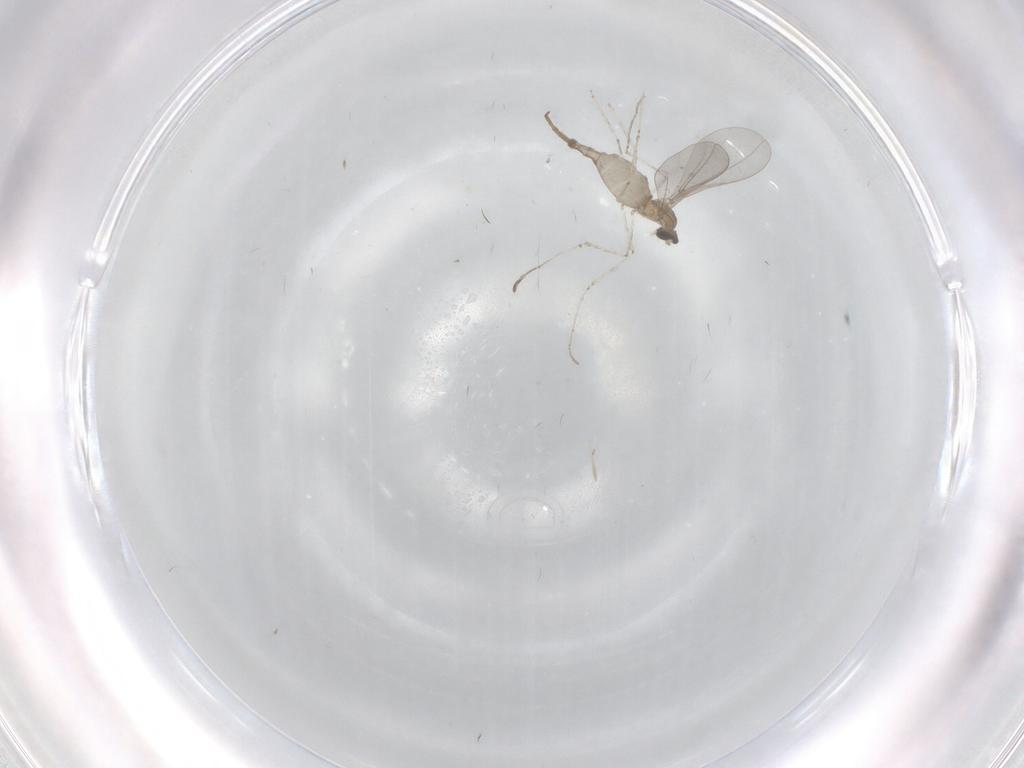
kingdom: Animalia
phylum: Arthropoda
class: Insecta
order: Diptera
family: Cecidomyiidae
